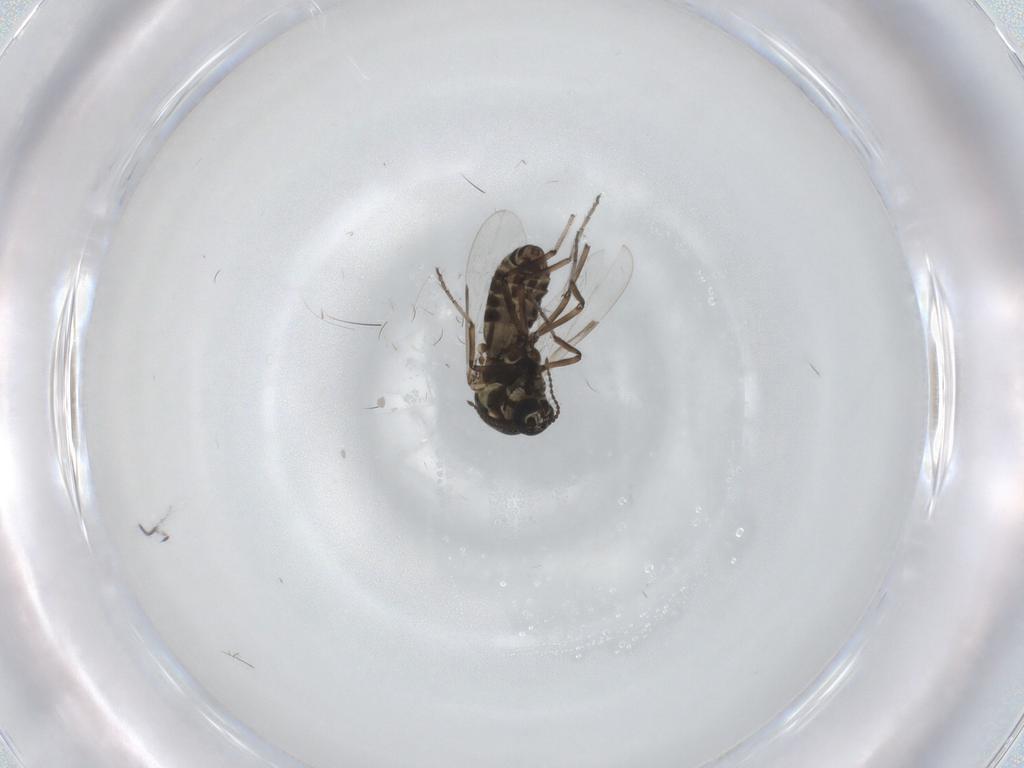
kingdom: Animalia
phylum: Arthropoda
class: Insecta
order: Diptera
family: Ceratopogonidae
